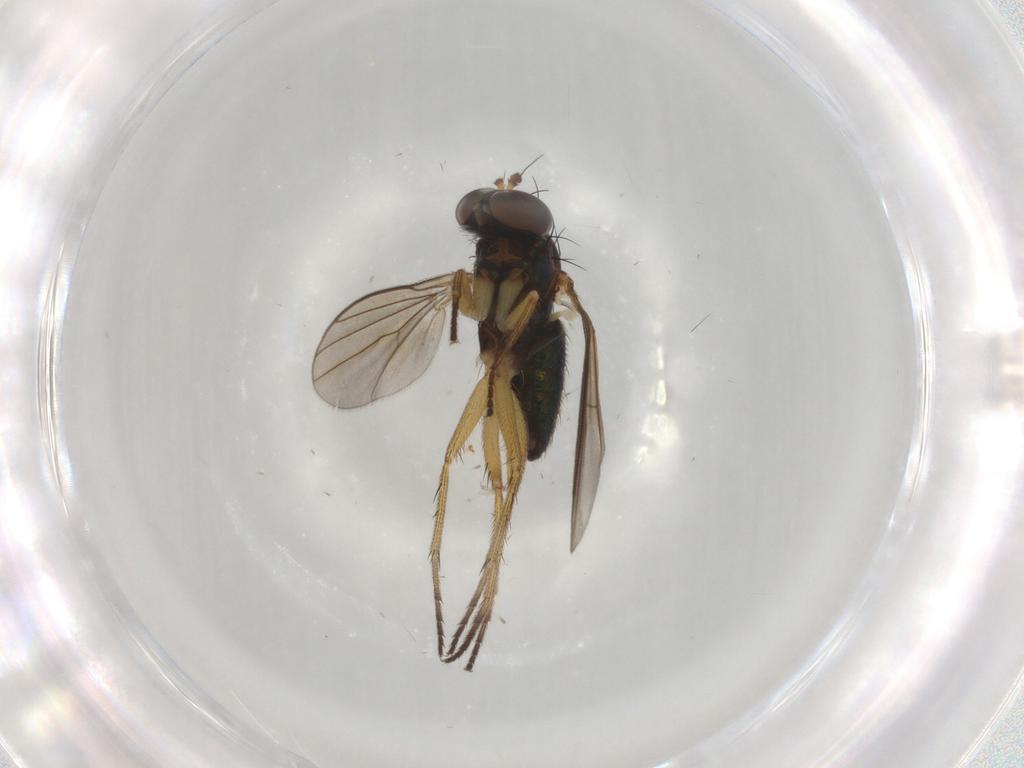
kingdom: Animalia
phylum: Arthropoda
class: Insecta
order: Diptera
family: Dolichopodidae
